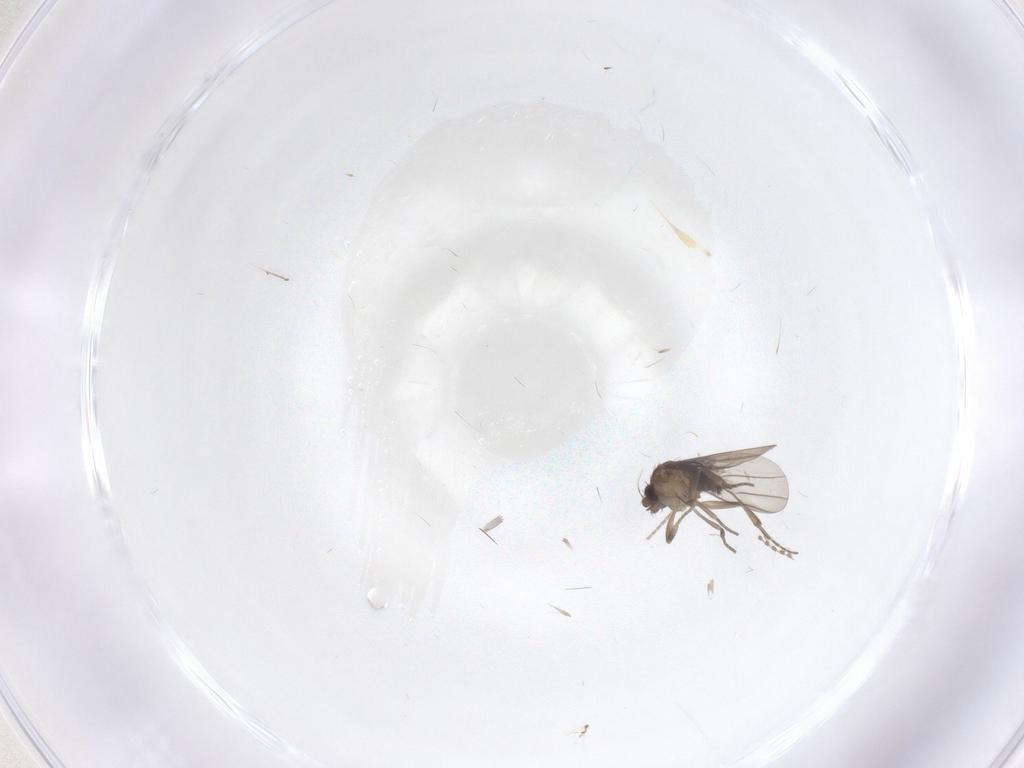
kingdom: Animalia
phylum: Arthropoda
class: Insecta
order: Diptera
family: Phoridae
